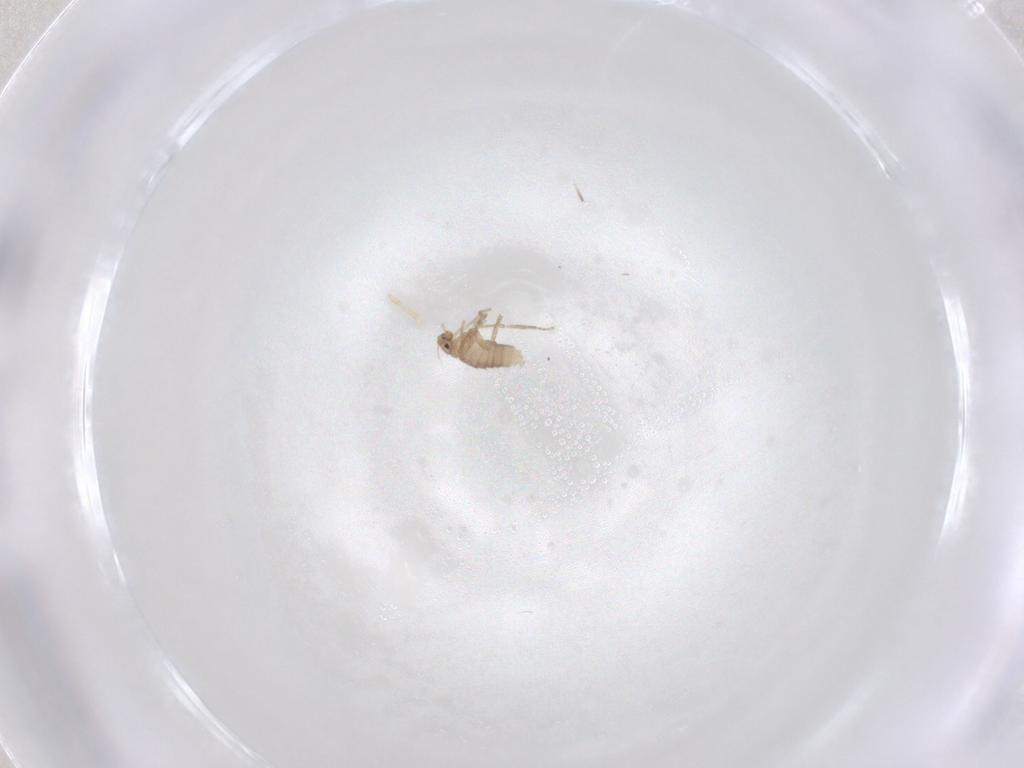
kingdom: Animalia
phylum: Arthropoda
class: Insecta
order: Diptera
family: Phoridae
